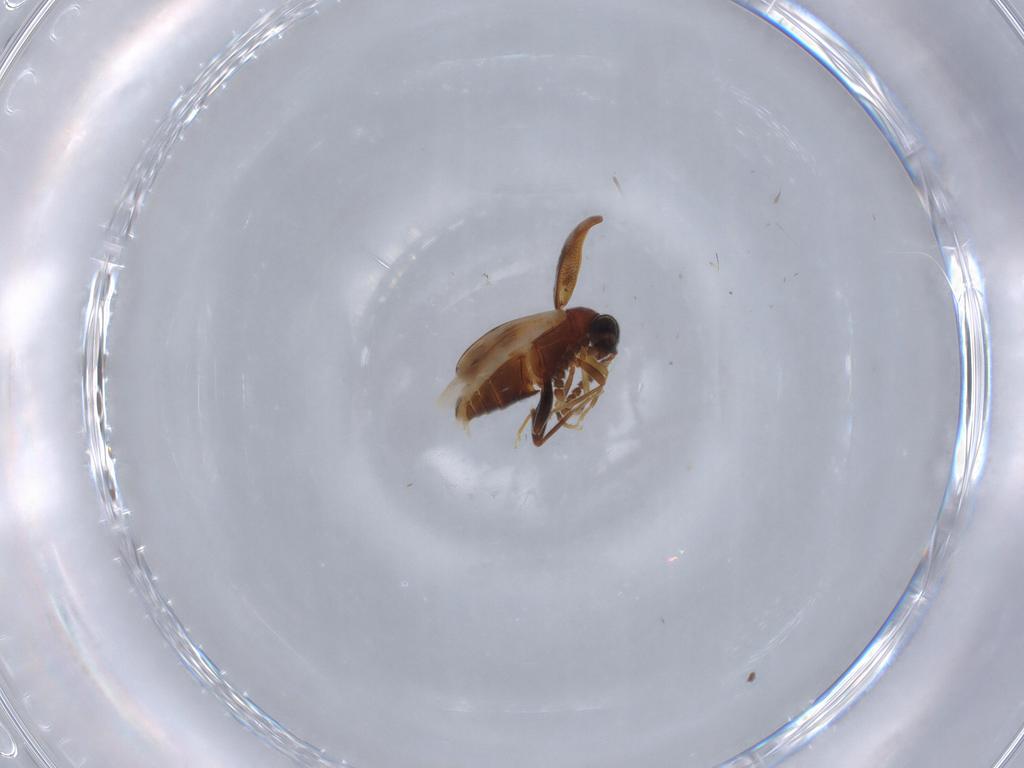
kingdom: Animalia
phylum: Arthropoda
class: Insecta
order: Coleoptera
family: Aderidae
